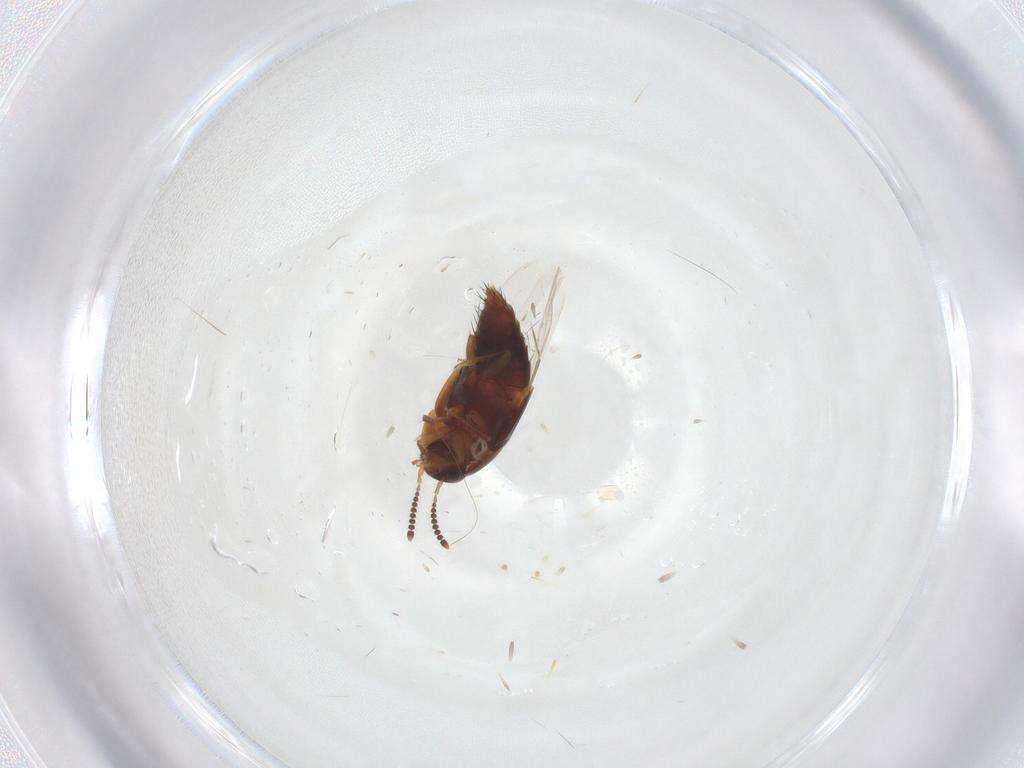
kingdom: Animalia
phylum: Arthropoda
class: Insecta
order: Coleoptera
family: Staphylinidae
